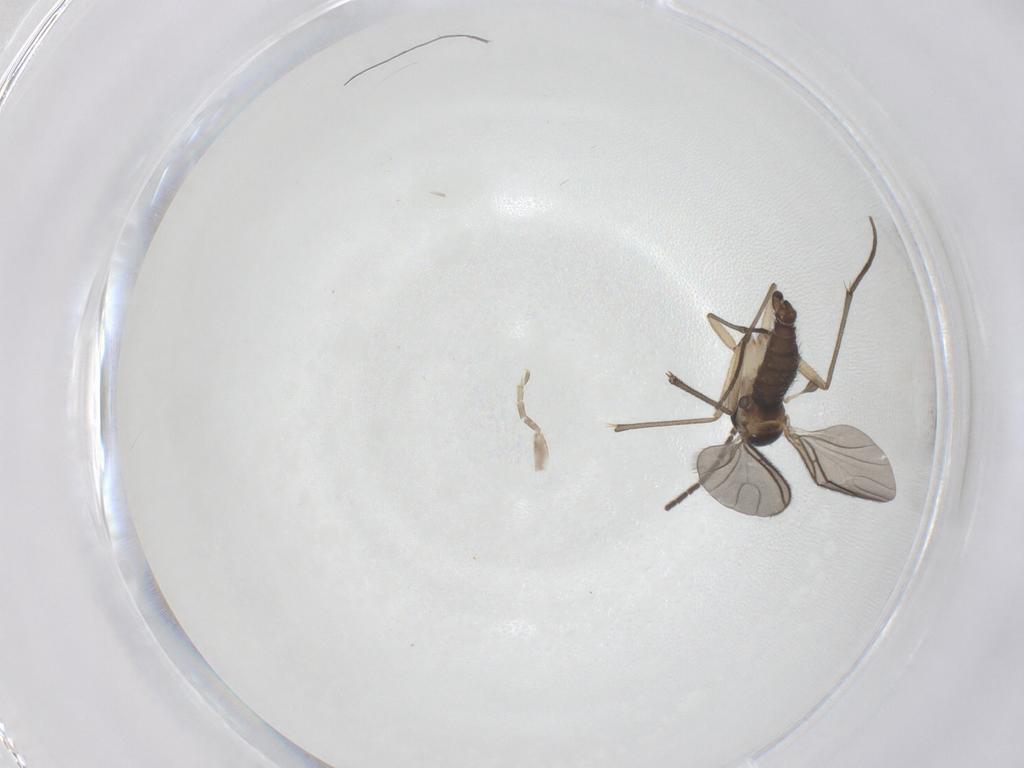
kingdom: Animalia
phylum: Arthropoda
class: Insecta
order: Diptera
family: Sciaridae
